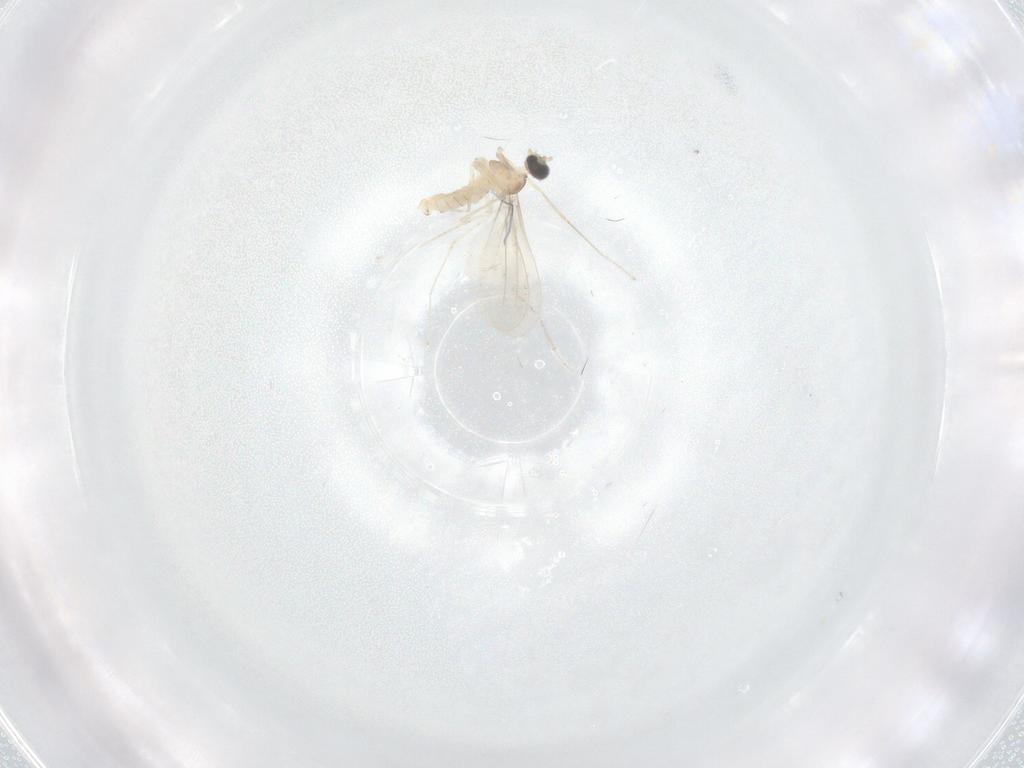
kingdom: Animalia
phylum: Arthropoda
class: Insecta
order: Diptera
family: Cecidomyiidae
